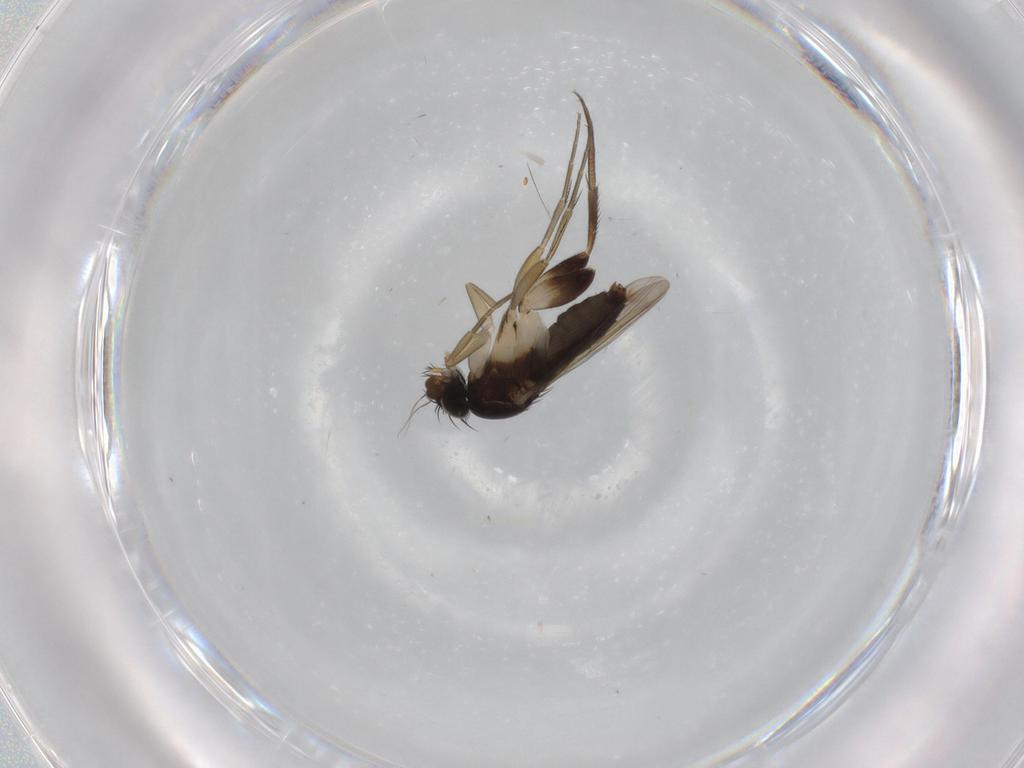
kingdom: Animalia
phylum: Arthropoda
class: Insecta
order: Diptera
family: Phoridae
